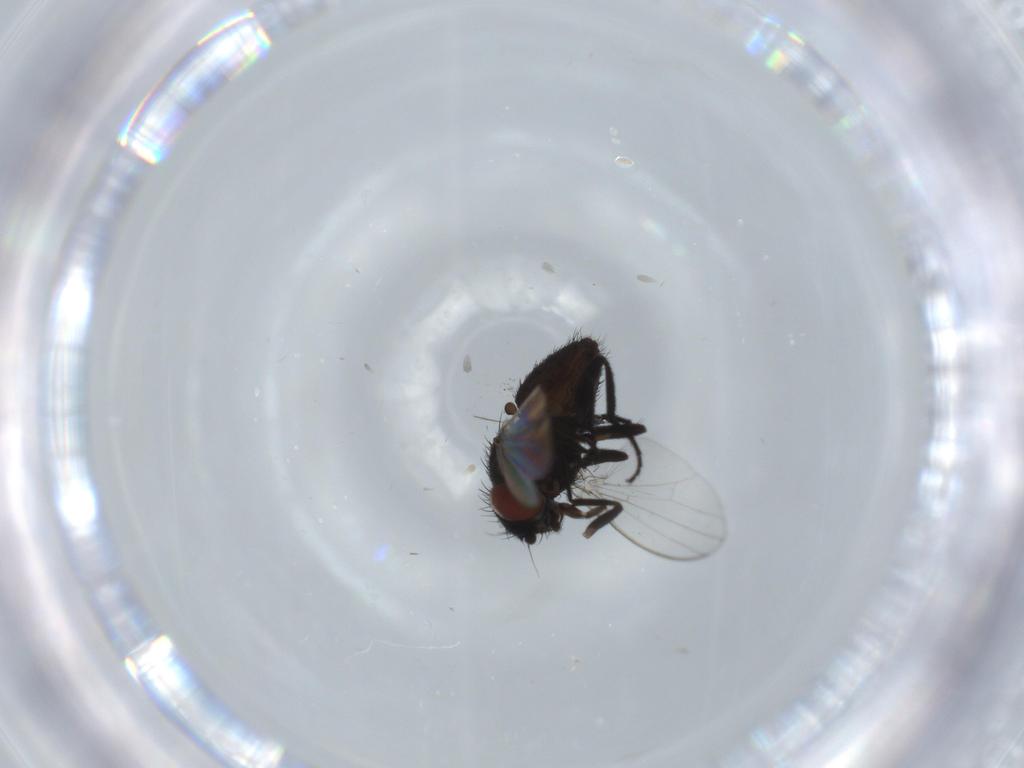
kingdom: Animalia
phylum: Arthropoda
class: Insecta
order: Diptera
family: Milichiidae
